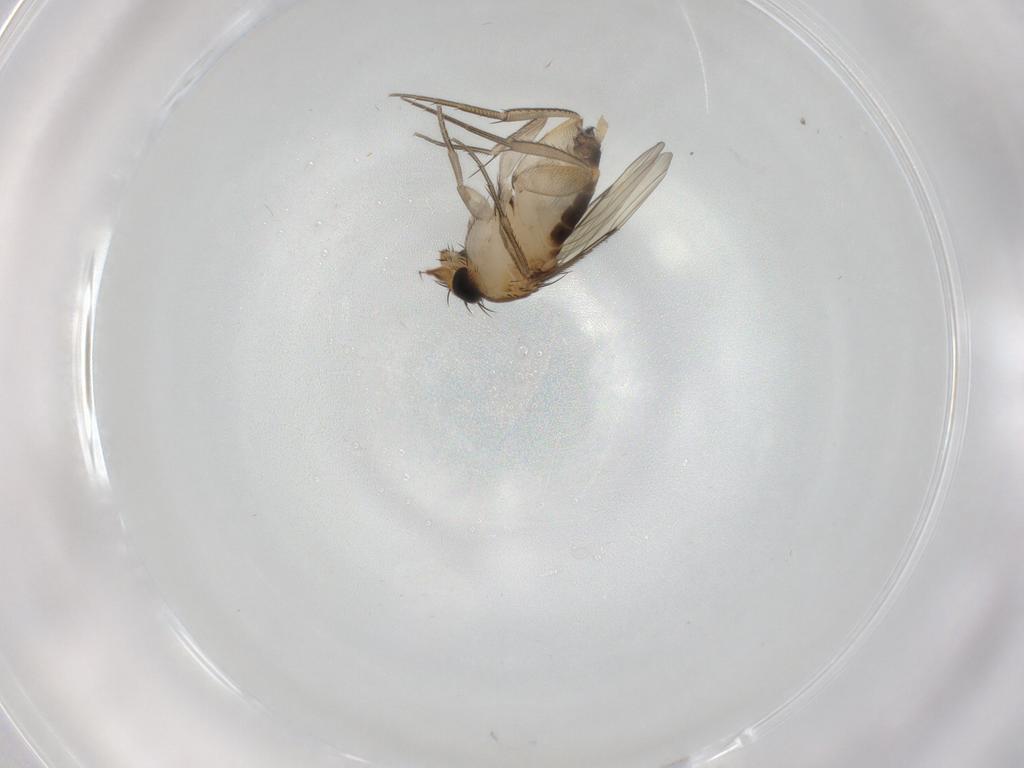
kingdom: Animalia
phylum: Arthropoda
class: Insecta
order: Diptera
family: Phoridae
